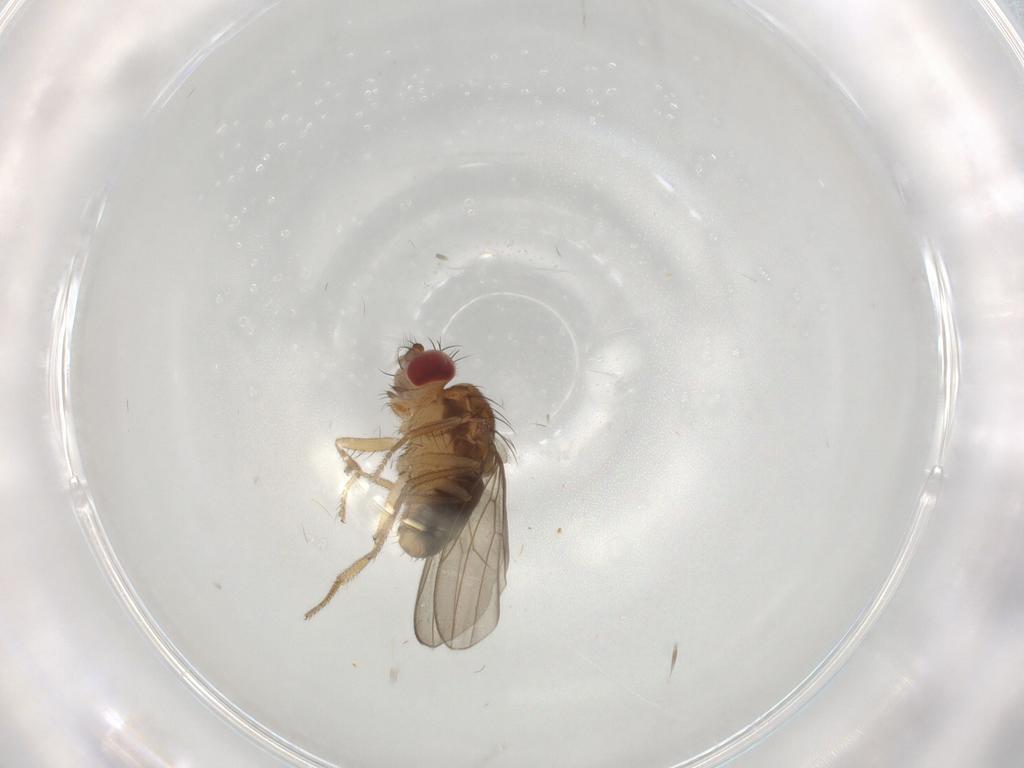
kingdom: Animalia
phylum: Arthropoda
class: Insecta
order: Diptera
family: Drosophilidae
